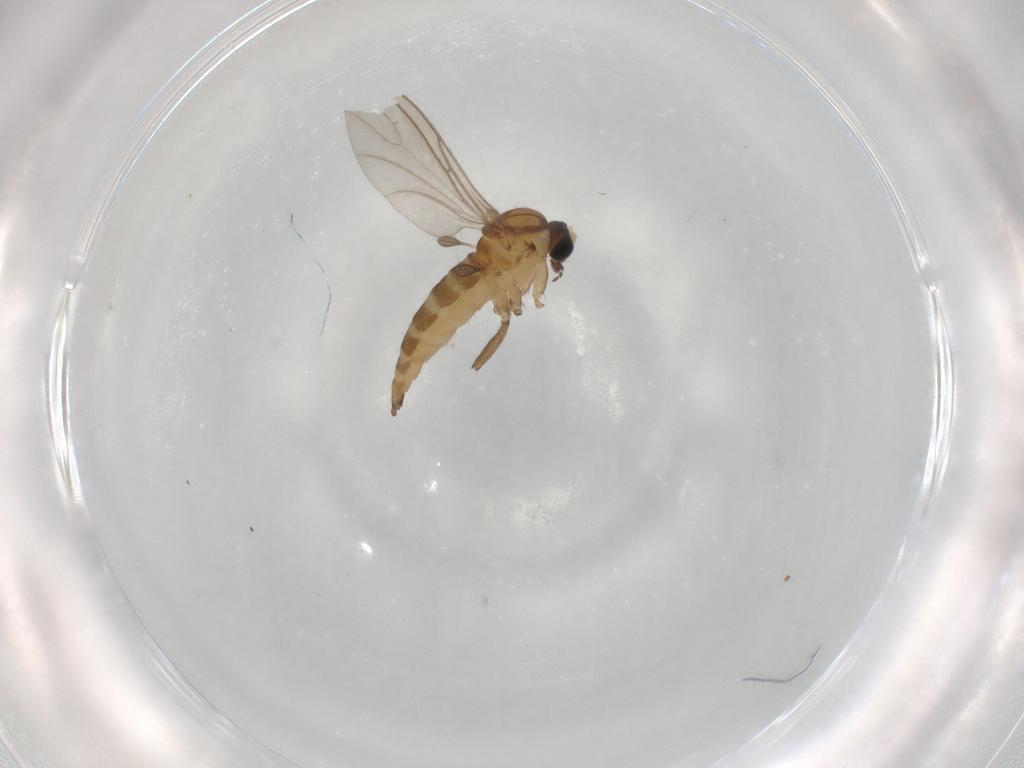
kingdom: Animalia
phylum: Arthropoda
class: Insecta
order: Diptera
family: Sciaridae
